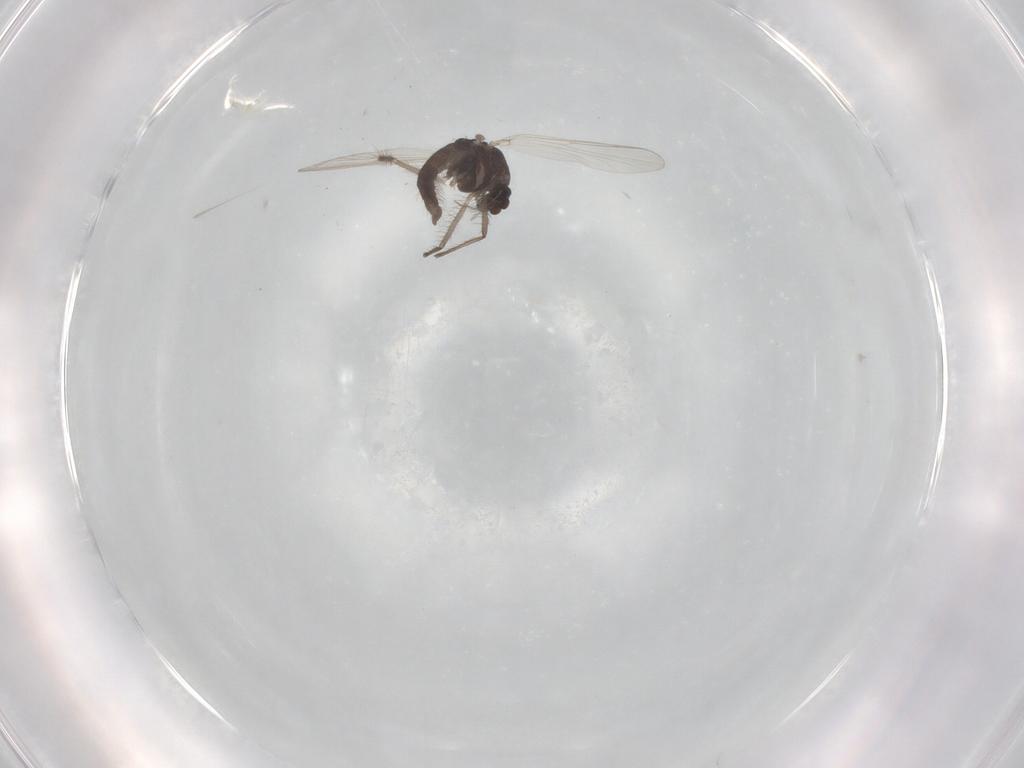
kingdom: Animalia
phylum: Arthropoda
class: Insecta
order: Diptera
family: Chironomidae
